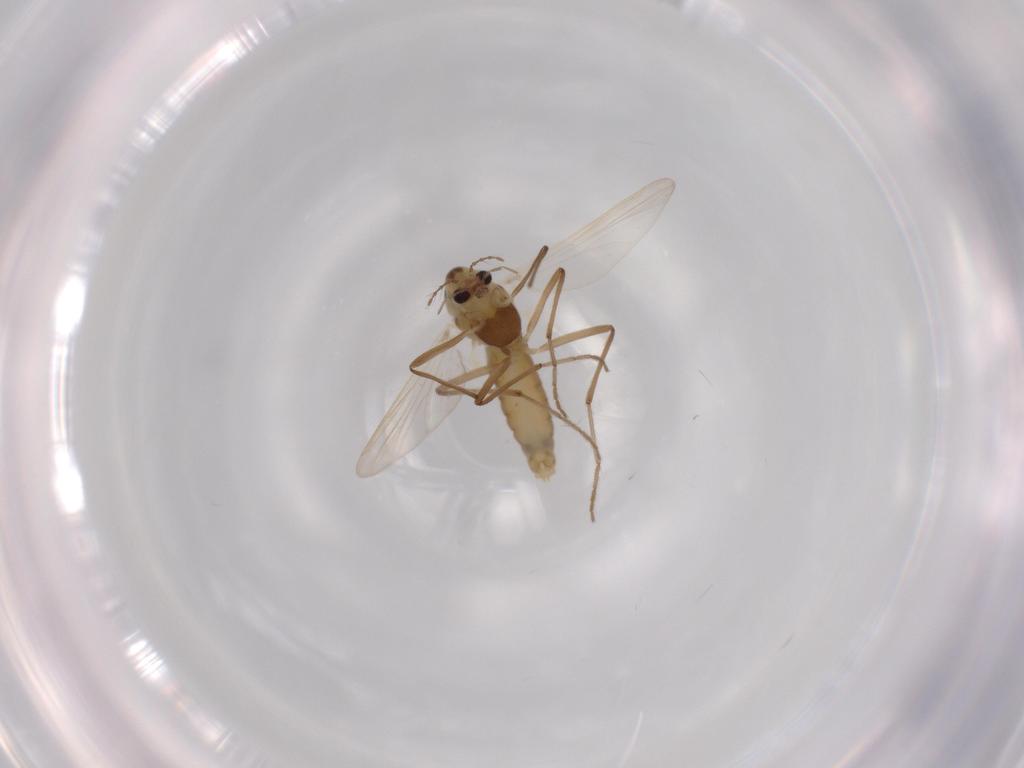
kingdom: Animalia
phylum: Arthropoda
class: Insecta
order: Diptera
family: Chironomidae
